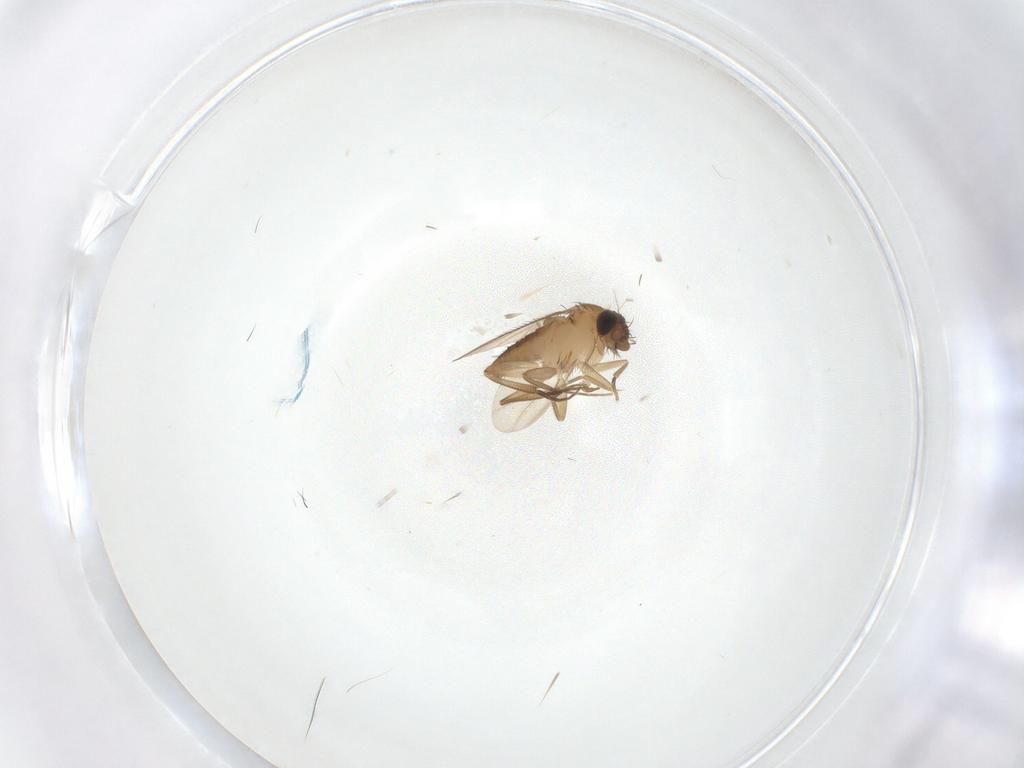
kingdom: Animalia
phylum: Arthropoda
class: Insecta
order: Diptera
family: Phoridae
